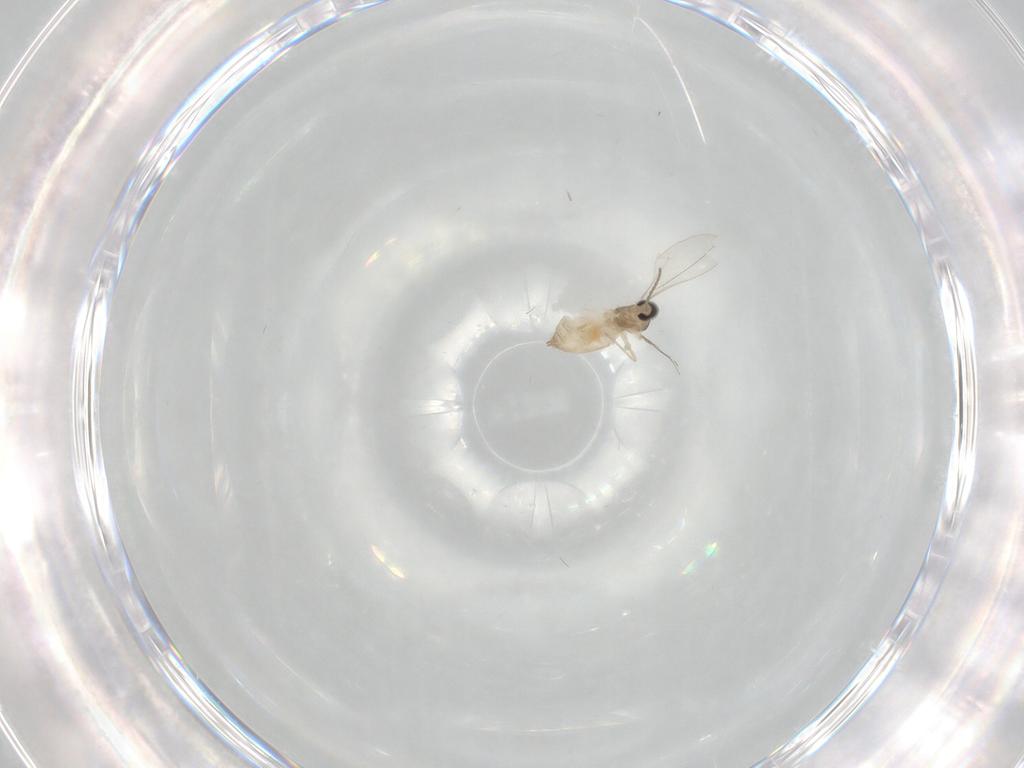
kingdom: Animalia
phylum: Arthropoda
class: Insecta
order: Diptera
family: Cecidomyiidae
